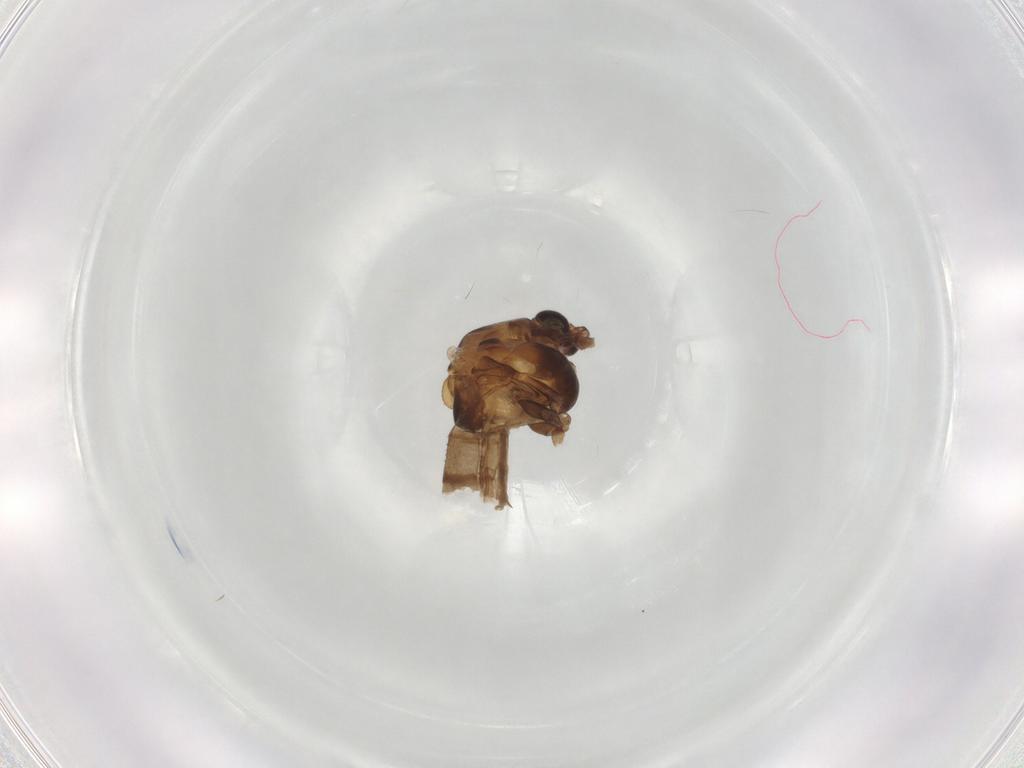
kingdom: Animalia
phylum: Arthropoda
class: Insecta
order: Diptera
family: Chironomidae
